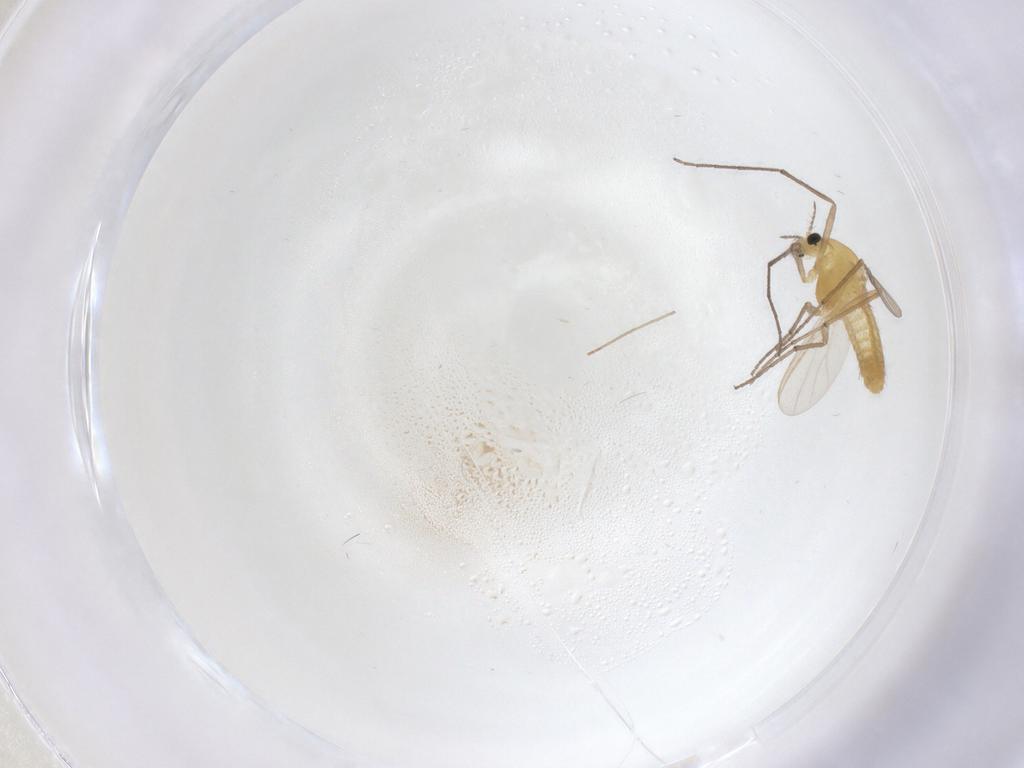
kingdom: Animalia
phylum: Arthropoda
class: Insecta
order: Diptera
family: Chironomidae
